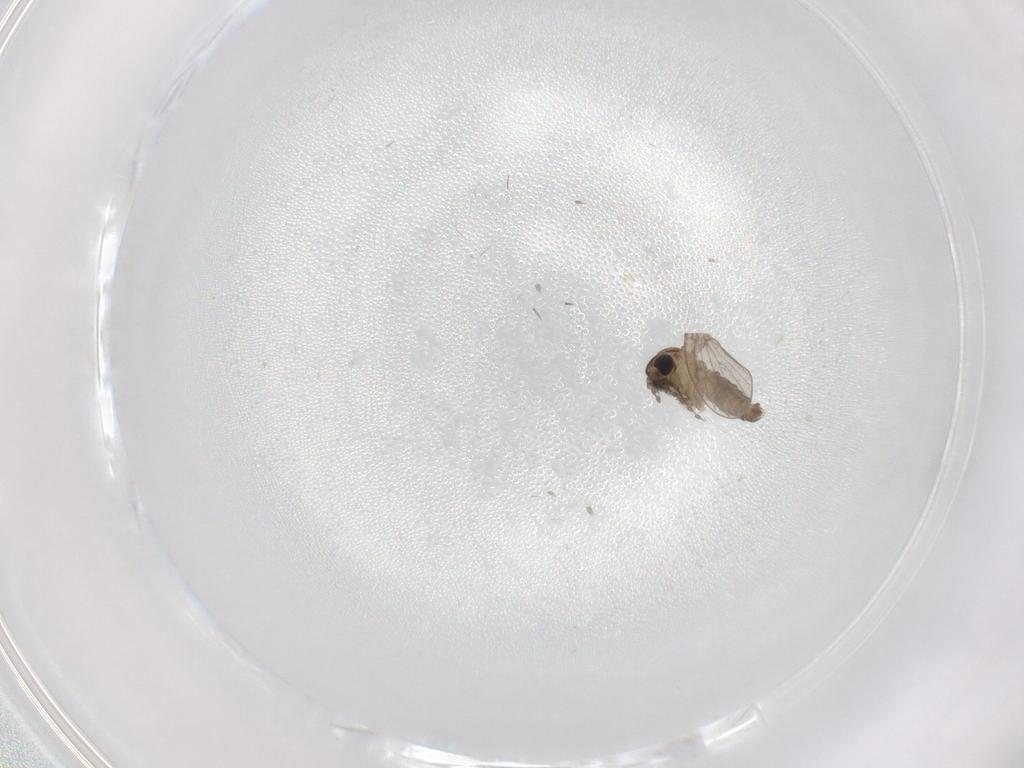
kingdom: Animalia
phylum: Arthropoda
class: Insecta
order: Diptera
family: Psychodidae
